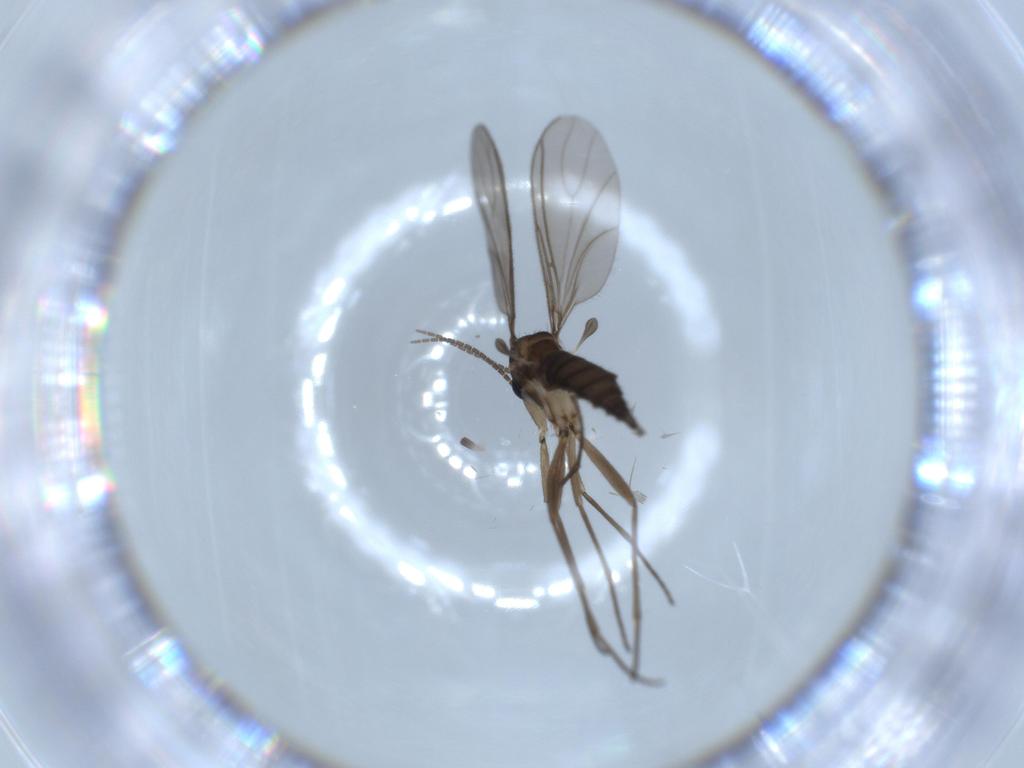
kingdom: Animalia
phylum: Arthropoda
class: Insecta
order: Diptera
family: Sciaridae
